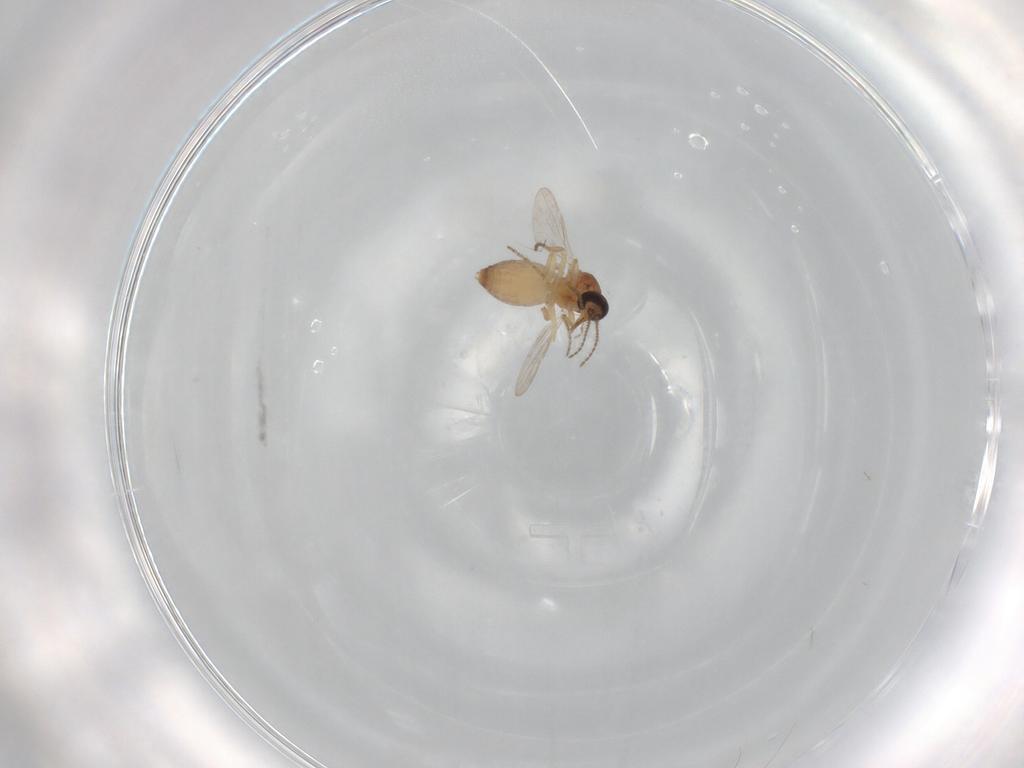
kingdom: Animalia
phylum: Arthropoda
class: Insecta
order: Diptera
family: Ceratopogonidae
